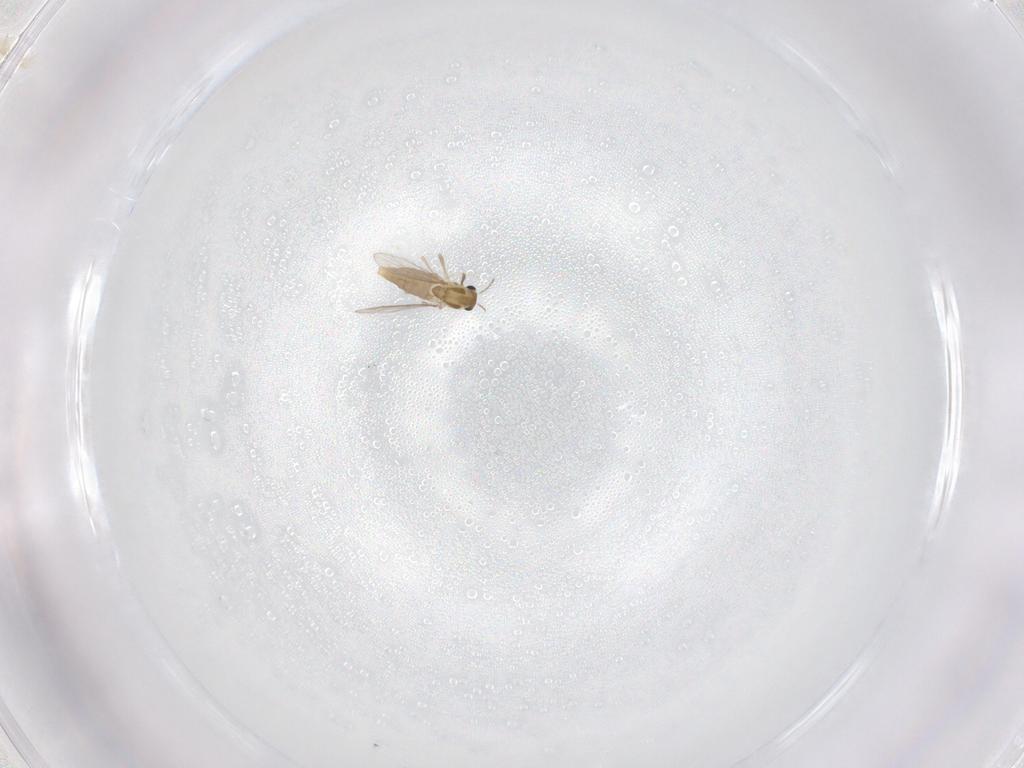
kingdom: Animalia
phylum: Arthropoda
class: Insecta
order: Diptera
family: Chironomidae
